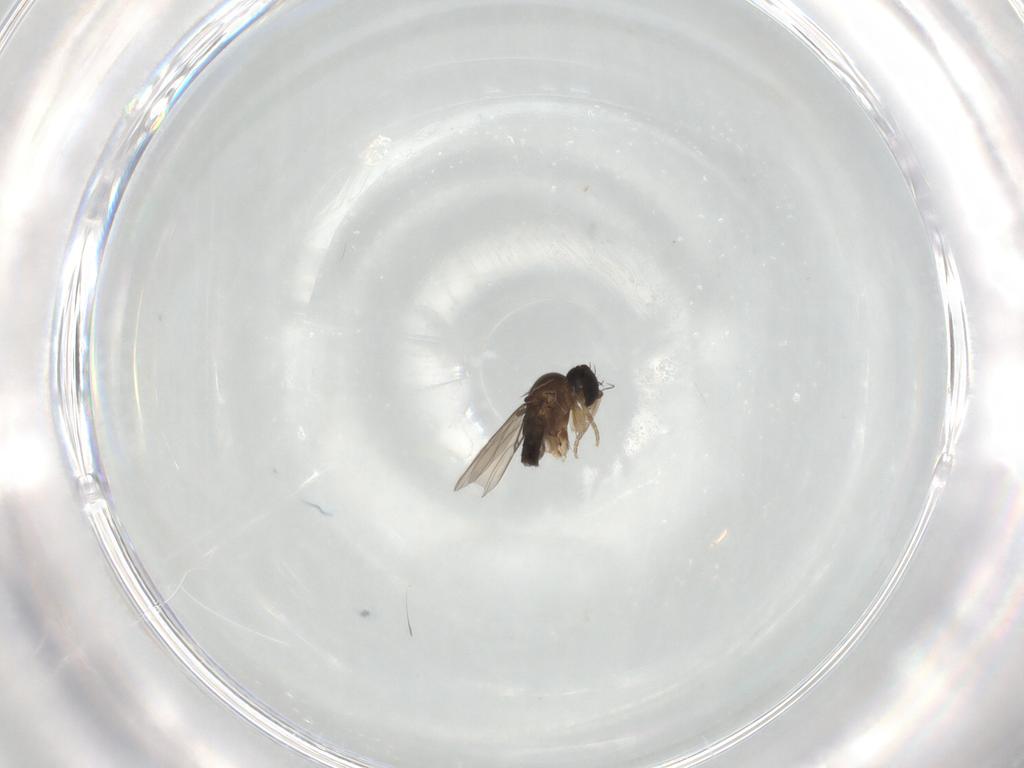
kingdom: Animalia
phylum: Arthropoda
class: Insecta
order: Diptera
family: Phoridae
